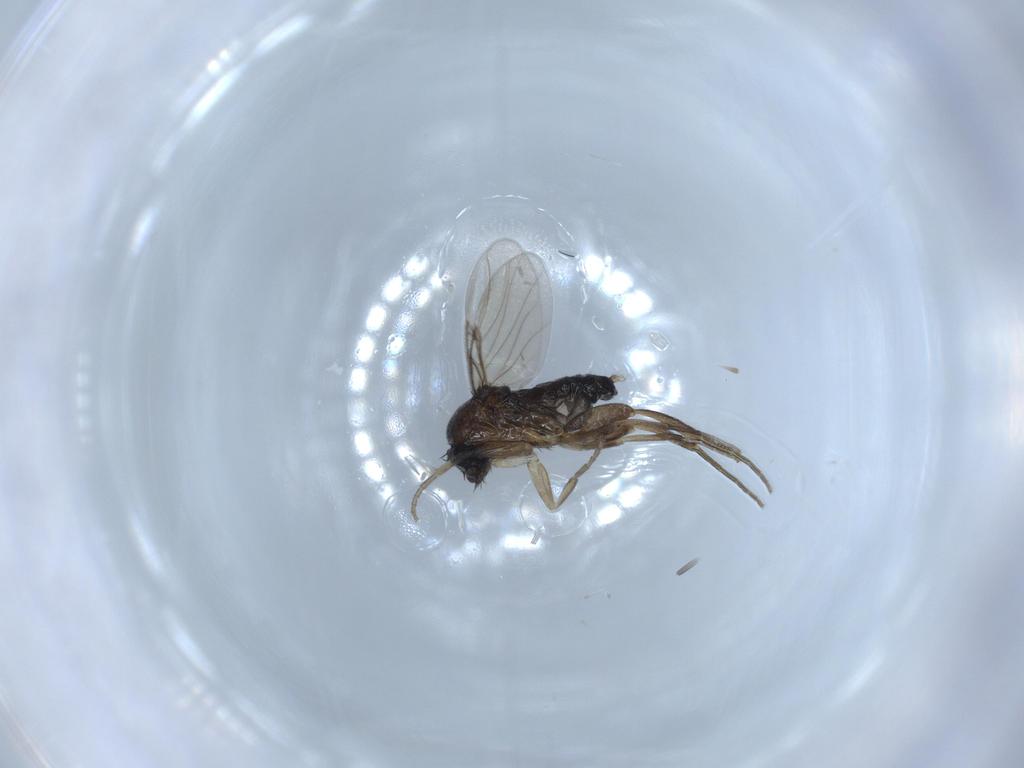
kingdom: Animalia
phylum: Arthropoda
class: Insecta
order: Diptera
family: Phoridae
